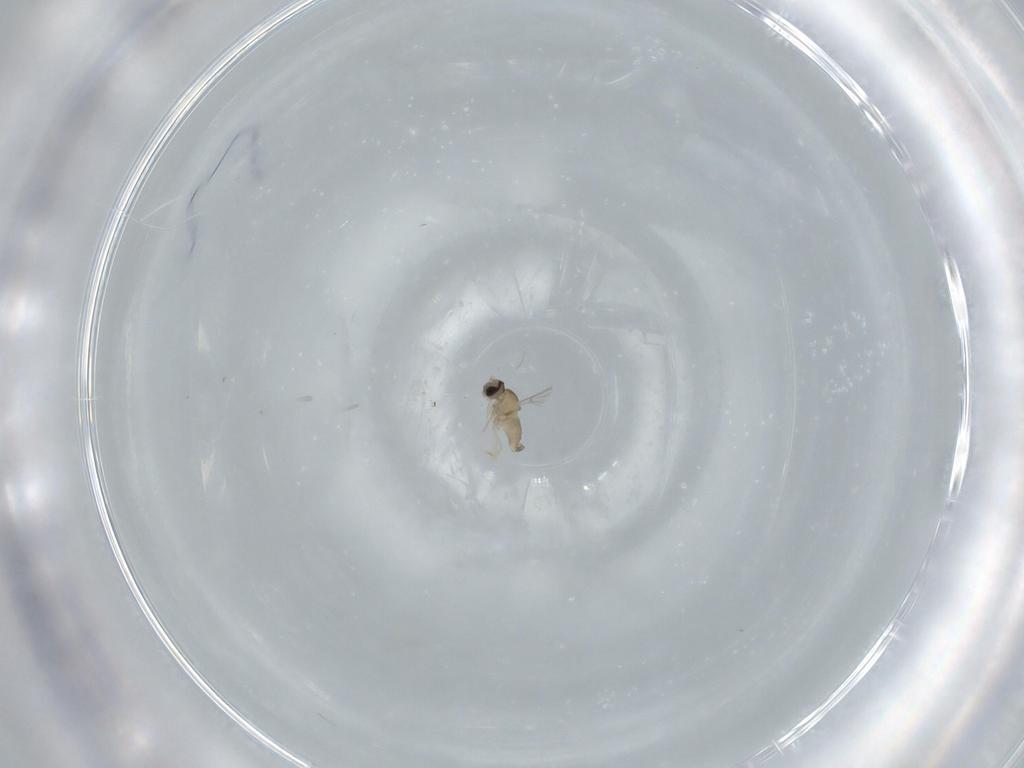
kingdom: Animalia
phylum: Arthropoda
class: Insecta
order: Diptera
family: Cecidomyiidae
